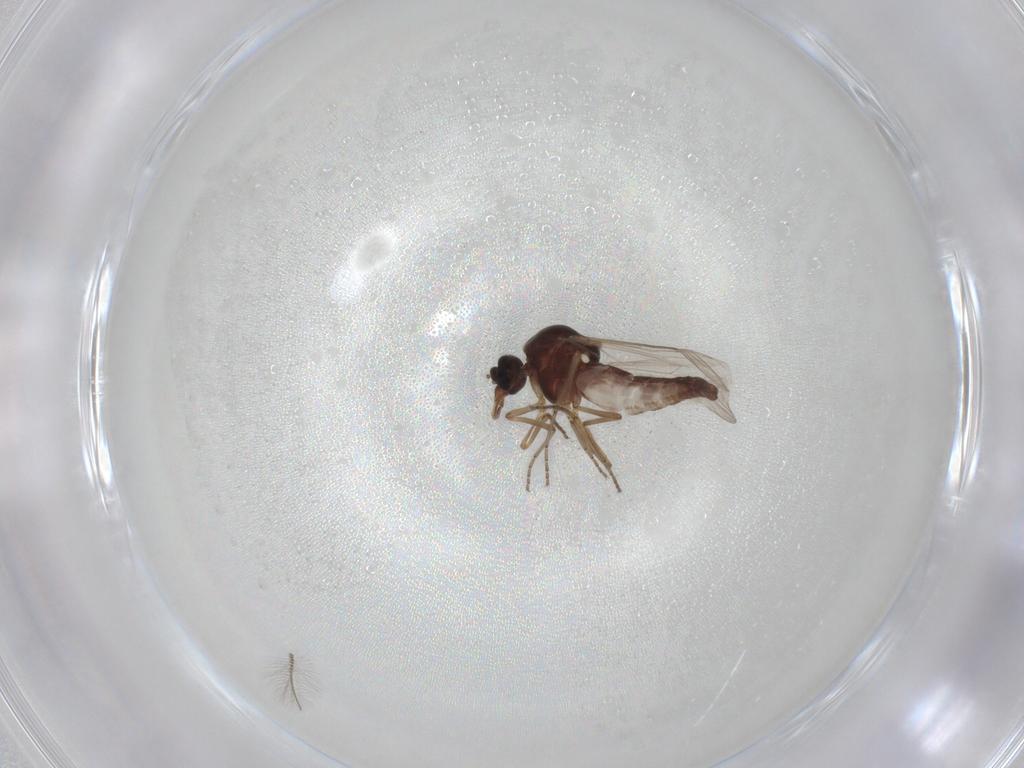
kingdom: Animalia
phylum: Arthropoda
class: Insecta
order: Diptera
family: Ceratopogonidae
